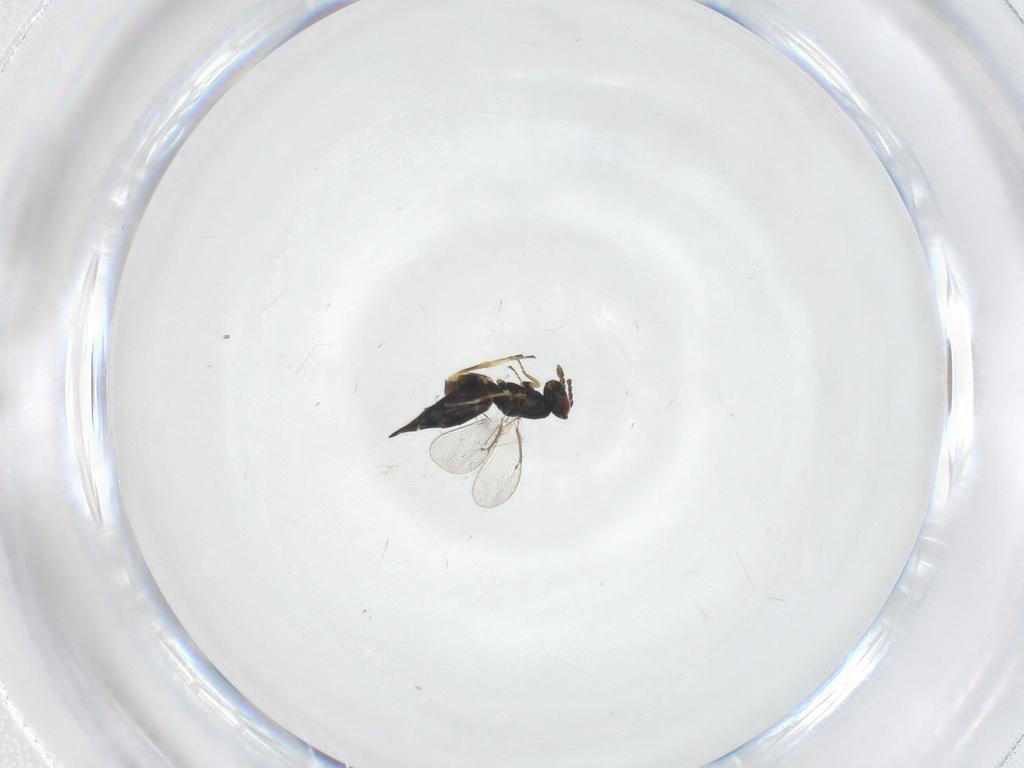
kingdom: Animalia
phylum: Arthropoda
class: Insecta
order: Hymenoptera
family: Eulophidae
